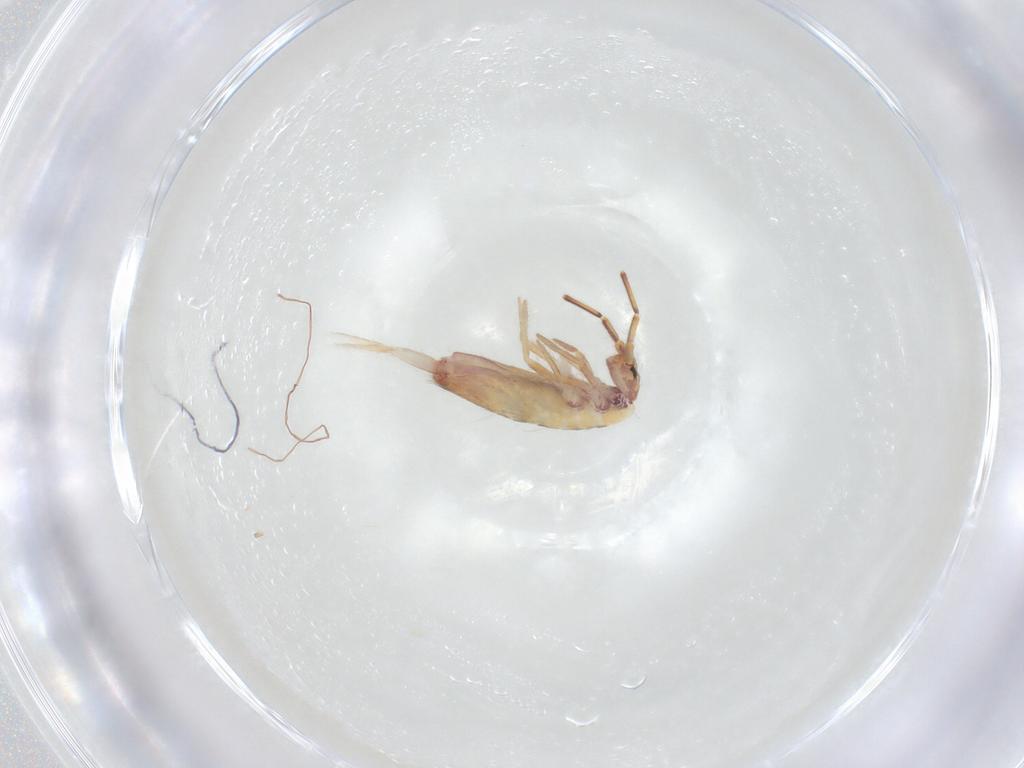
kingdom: Animalia
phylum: Arthropoda
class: Collembola
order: Entomobryomorpha
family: Entomobryidae
